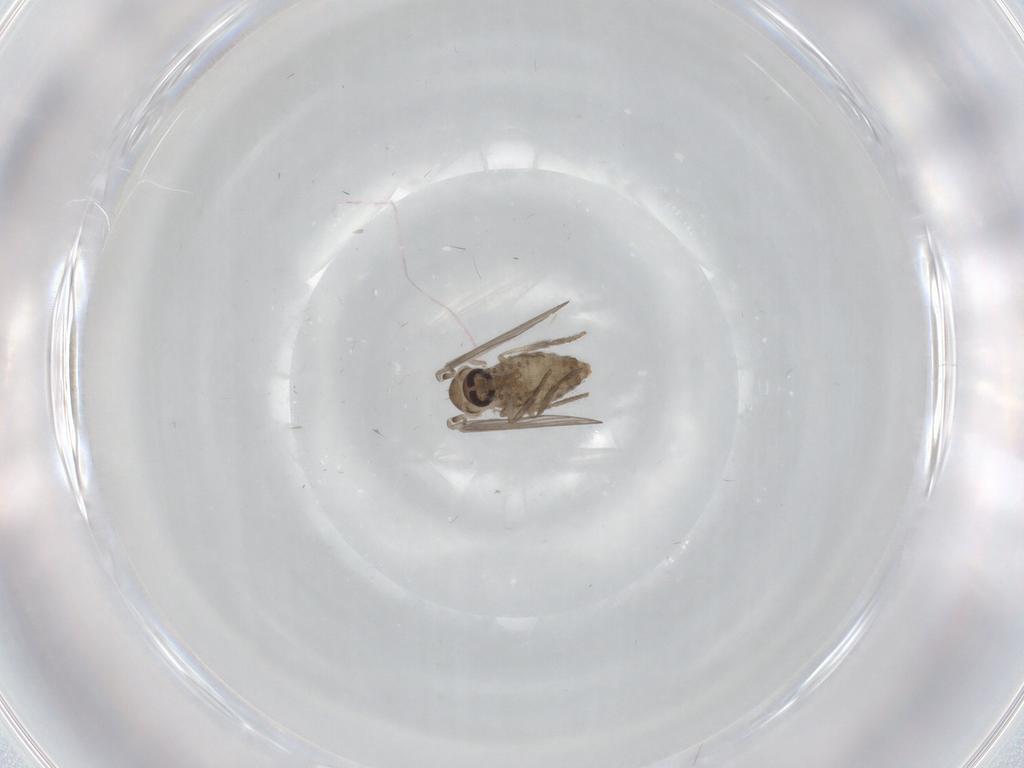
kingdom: Animalia
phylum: Arthropoda
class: Insecta
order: Diptera
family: Psychodidae
